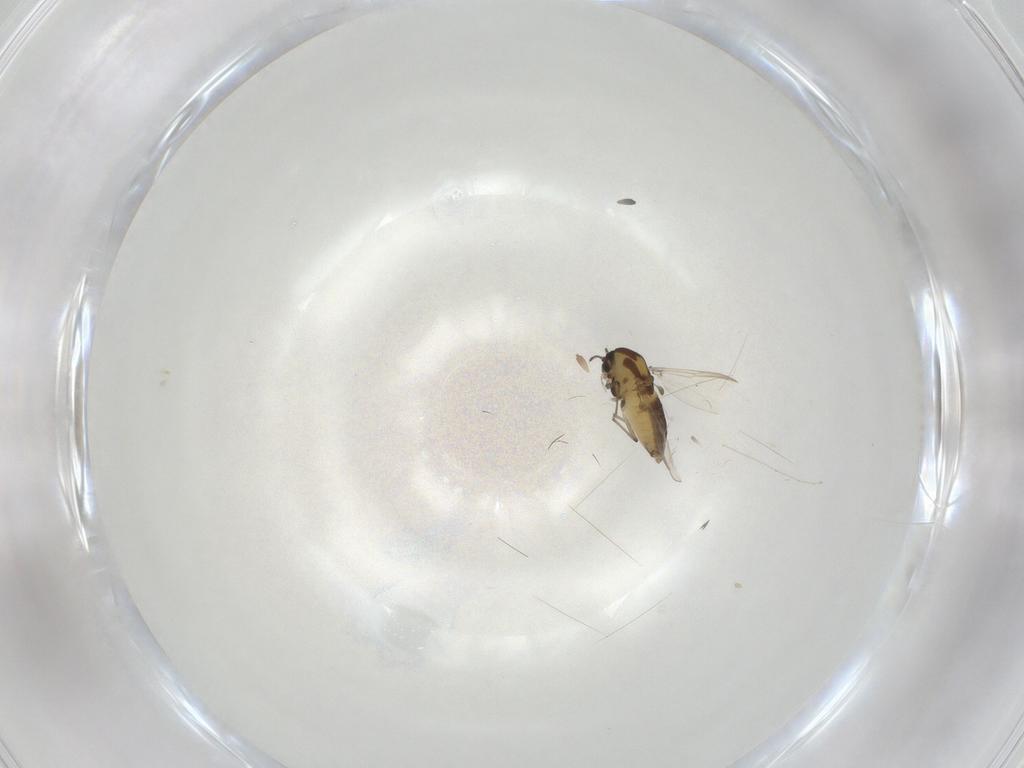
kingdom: Animalia
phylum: Arthropoda
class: Insecta
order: Diptera
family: Chironomidae
